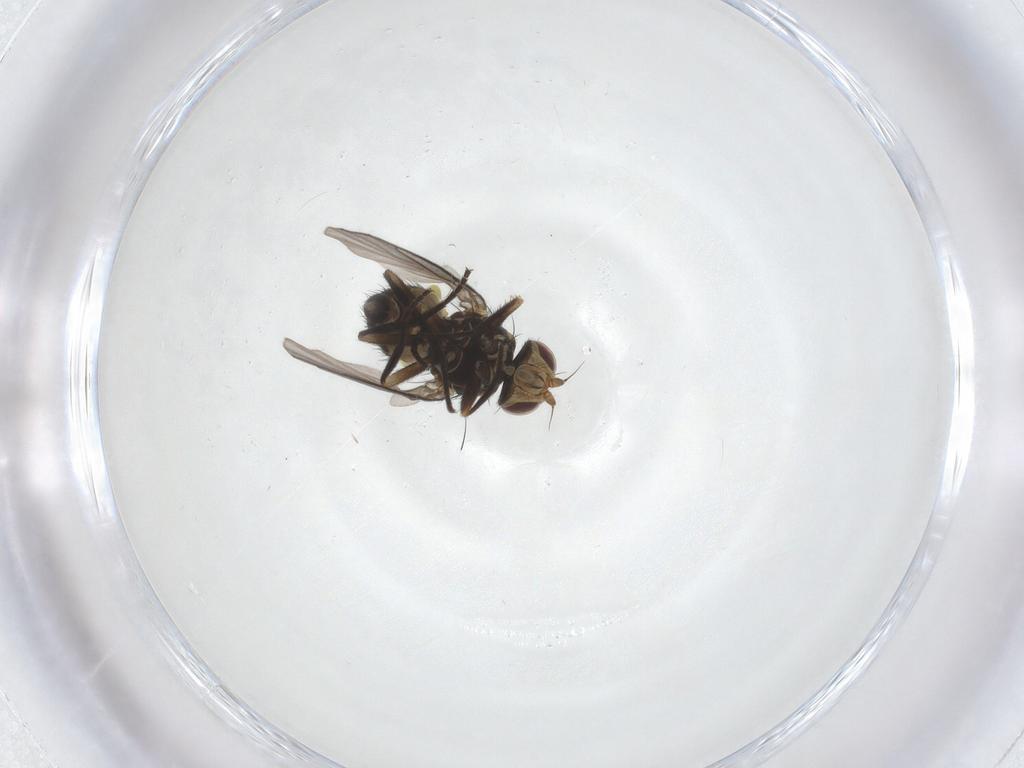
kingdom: Animalia
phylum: Arthropoda
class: Insecta
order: Diptera
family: Agromyzidae
